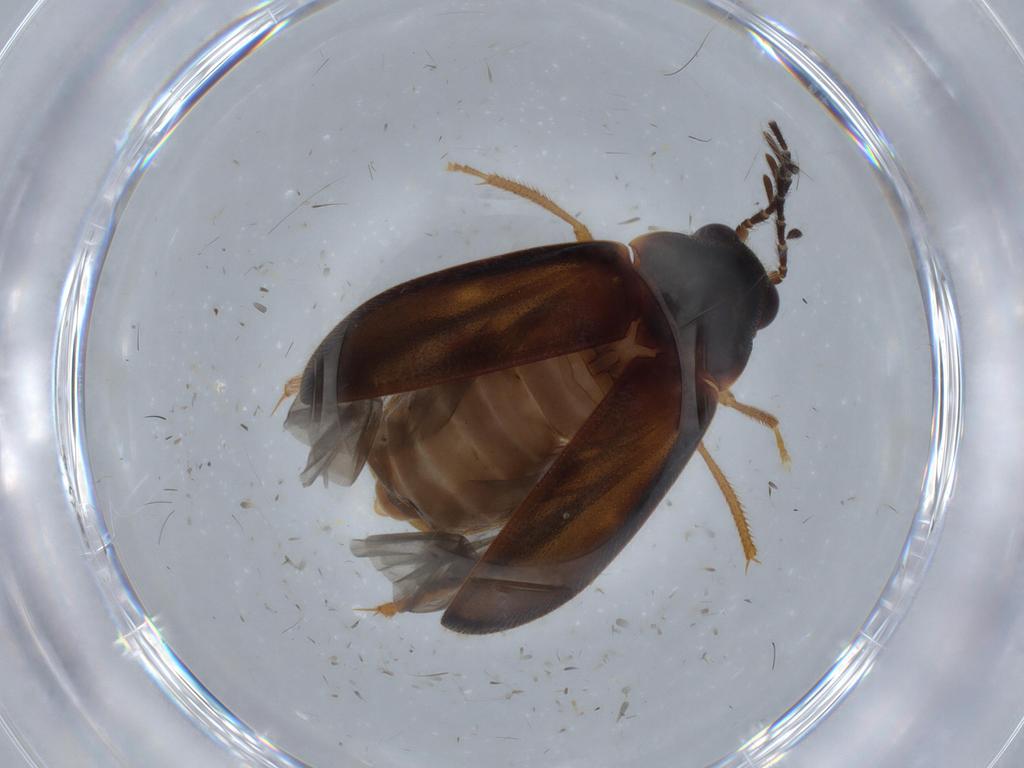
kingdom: Animalia
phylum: Arthropoda
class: Insecta
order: Coleoptera
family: Ptilodactylidae
